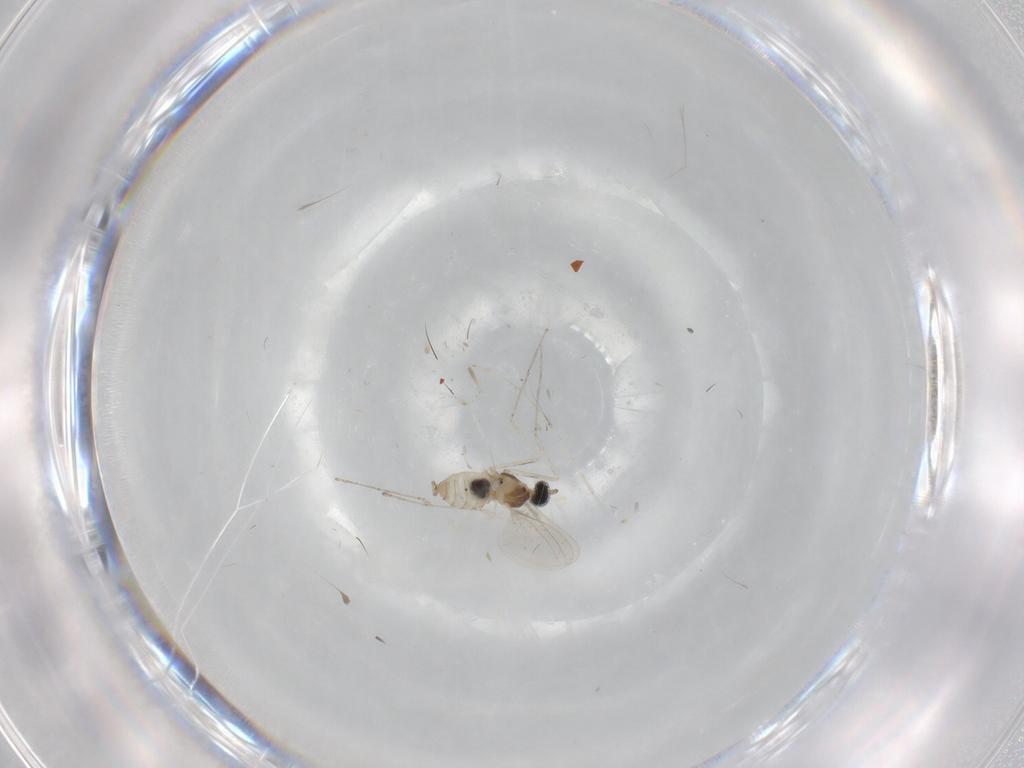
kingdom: Animalia
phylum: Arthropoda
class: Insecta
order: Diptera
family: Cecidomyiidae
